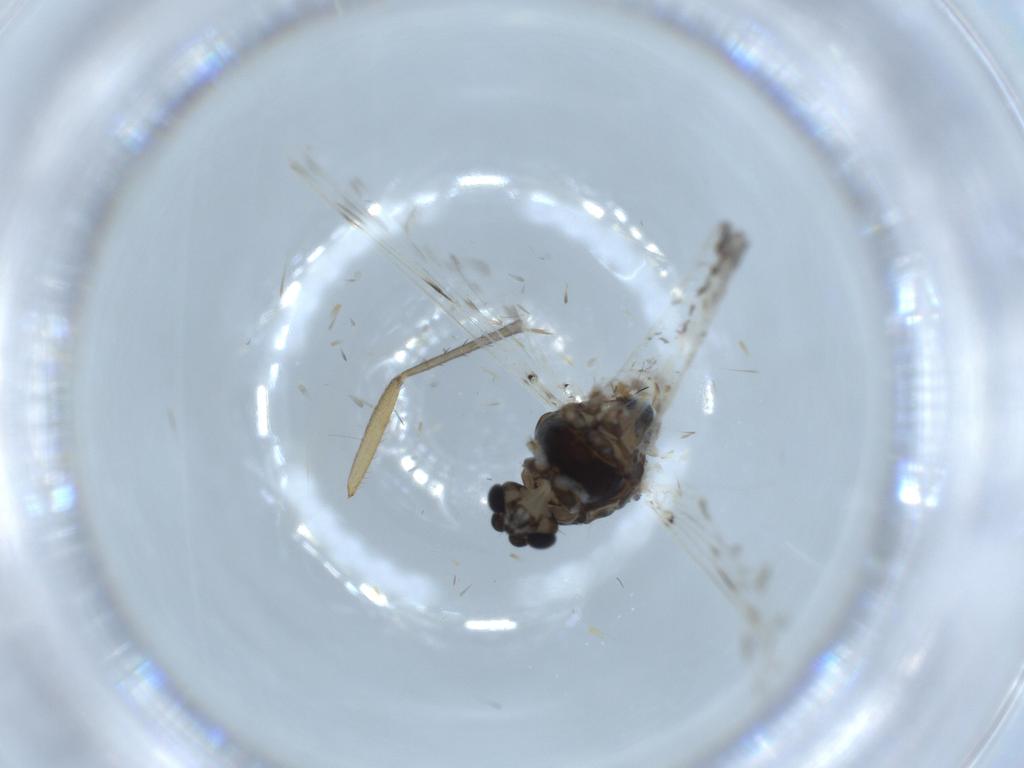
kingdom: Animalia
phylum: Arthropoda
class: Insecta
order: Diptera
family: Chironomidae
